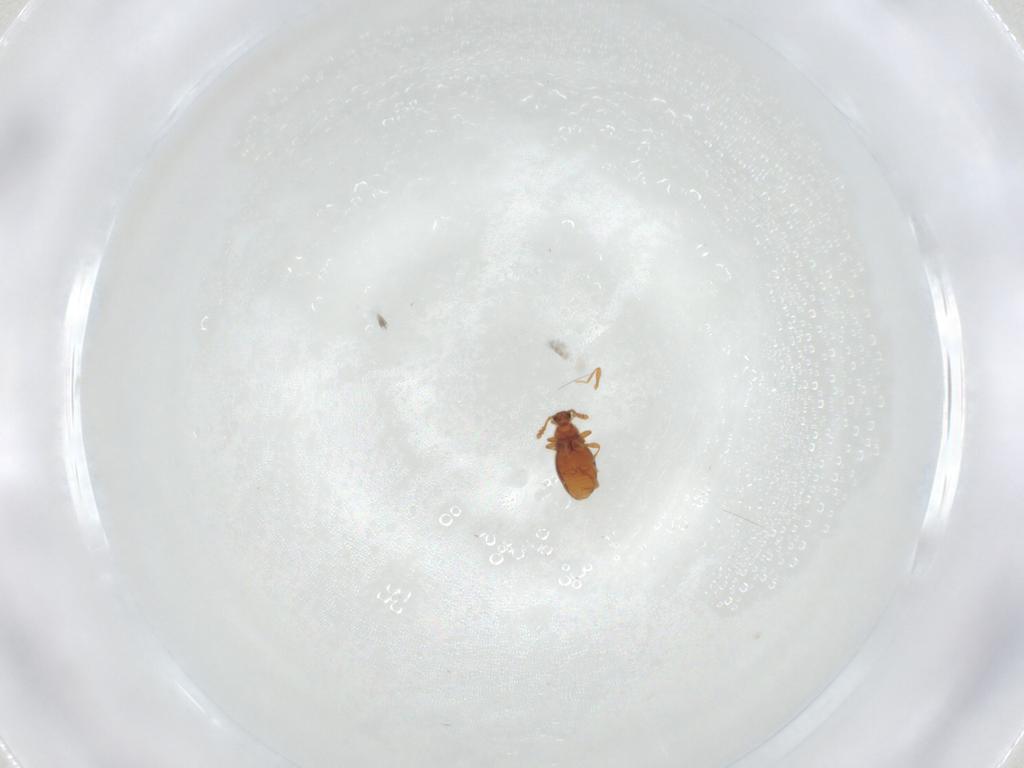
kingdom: Animalia
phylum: Arthropoda
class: Insecta
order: Coleoptera
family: Staphylinidae
